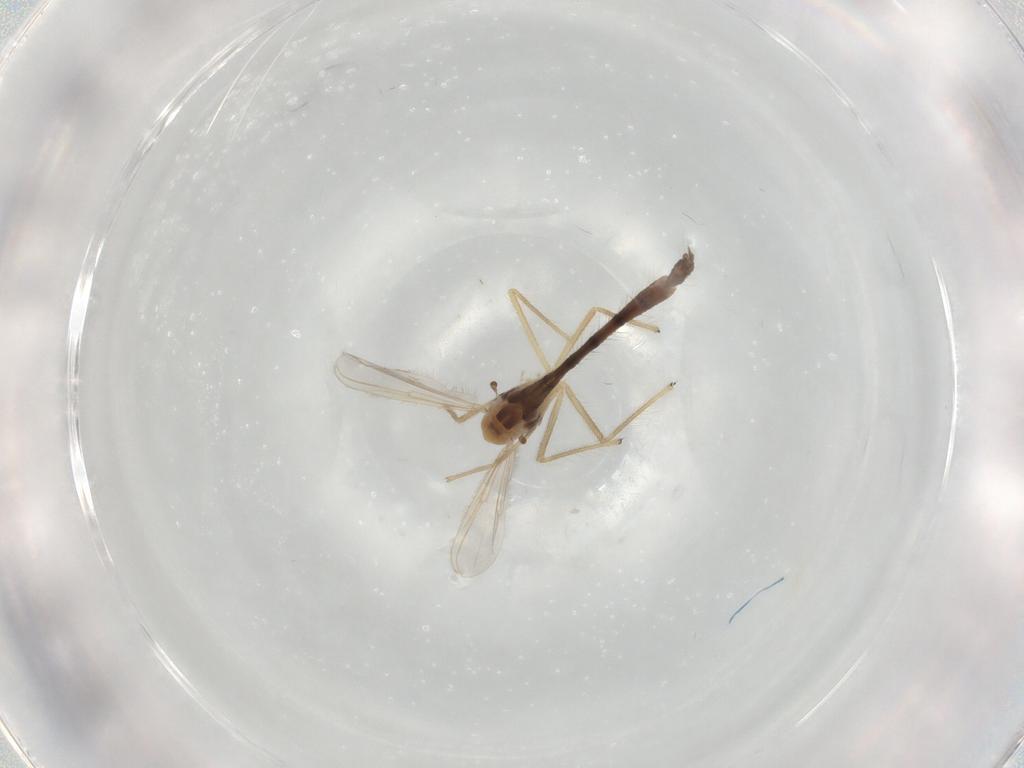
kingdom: Animalia
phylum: Arthropoda
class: Insecta
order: Diptera
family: Chironomidae
